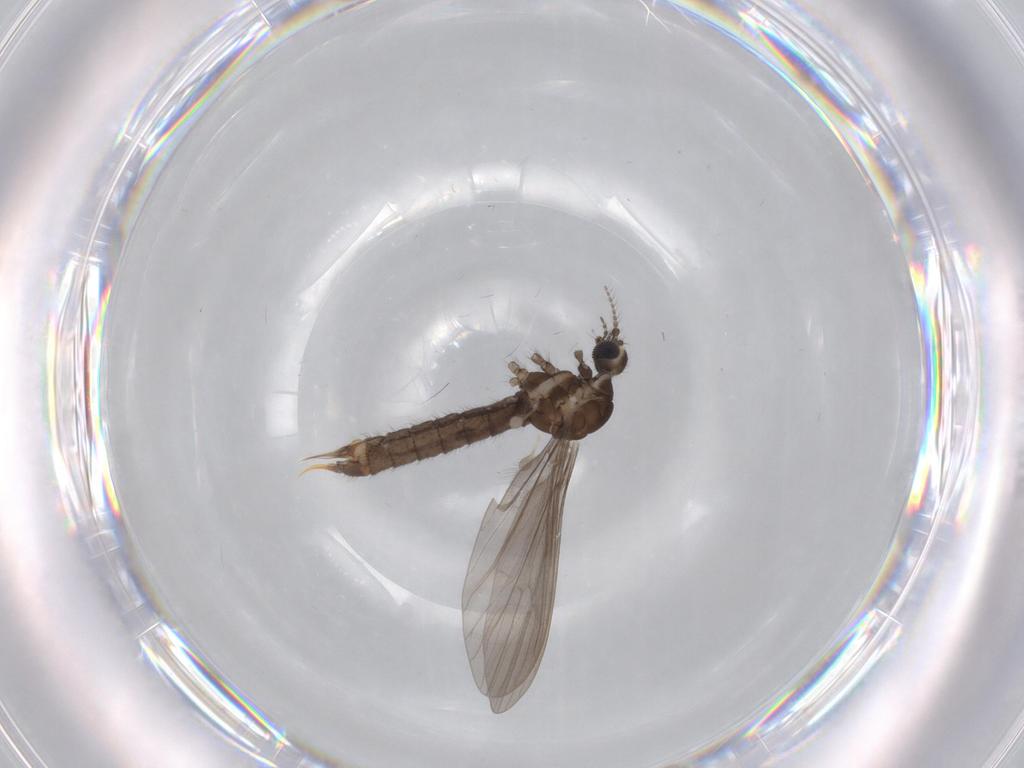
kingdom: Animalia
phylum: Arthropoda
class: Insecta
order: Diptera
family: Limoniidae
